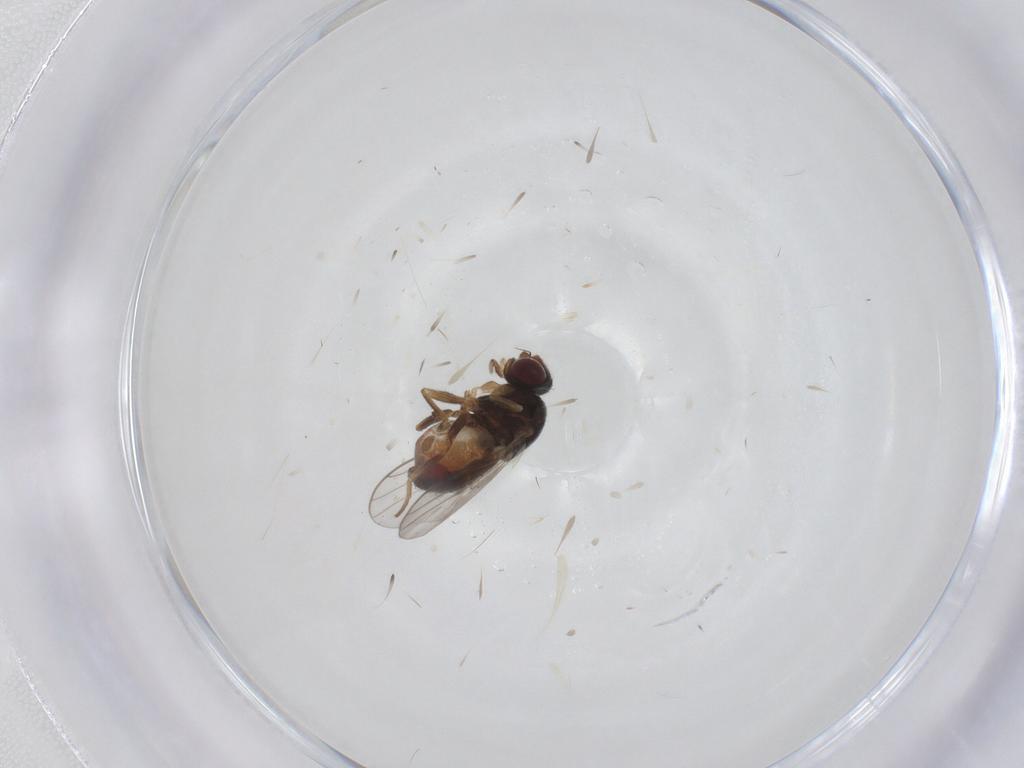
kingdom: Animalia
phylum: Arthropoda
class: Insecta
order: Diptera
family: Chloropidae
